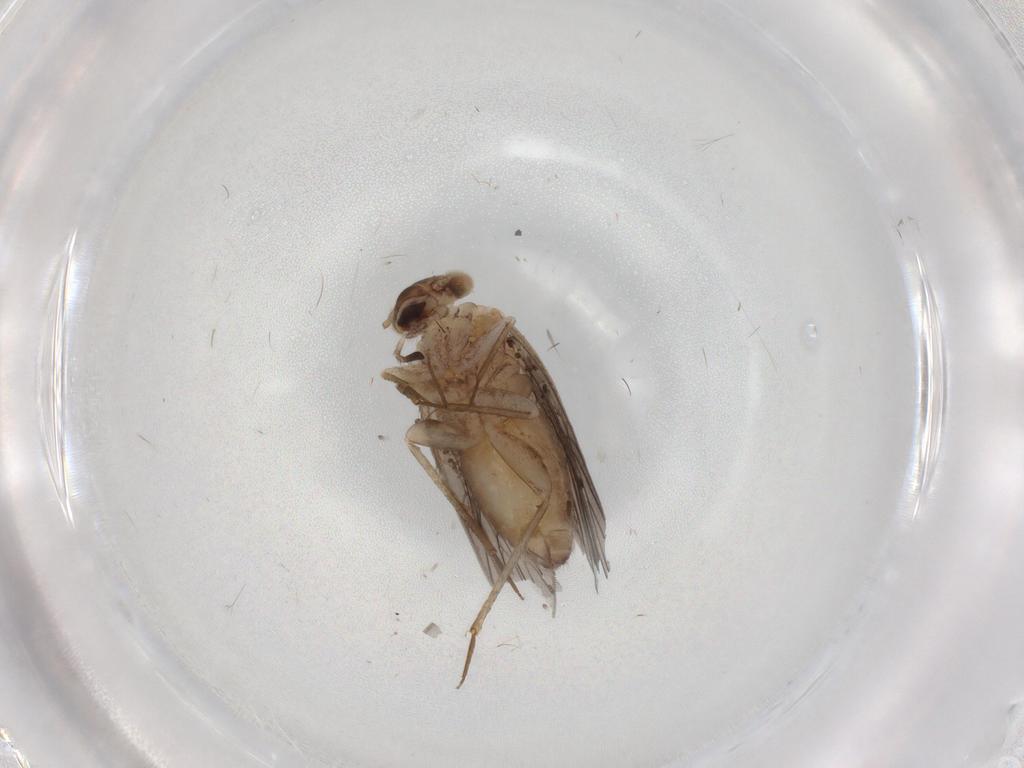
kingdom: Animalia
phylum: Arthropoda
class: Insecta
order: Psocodea
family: Lepidopsocidae
